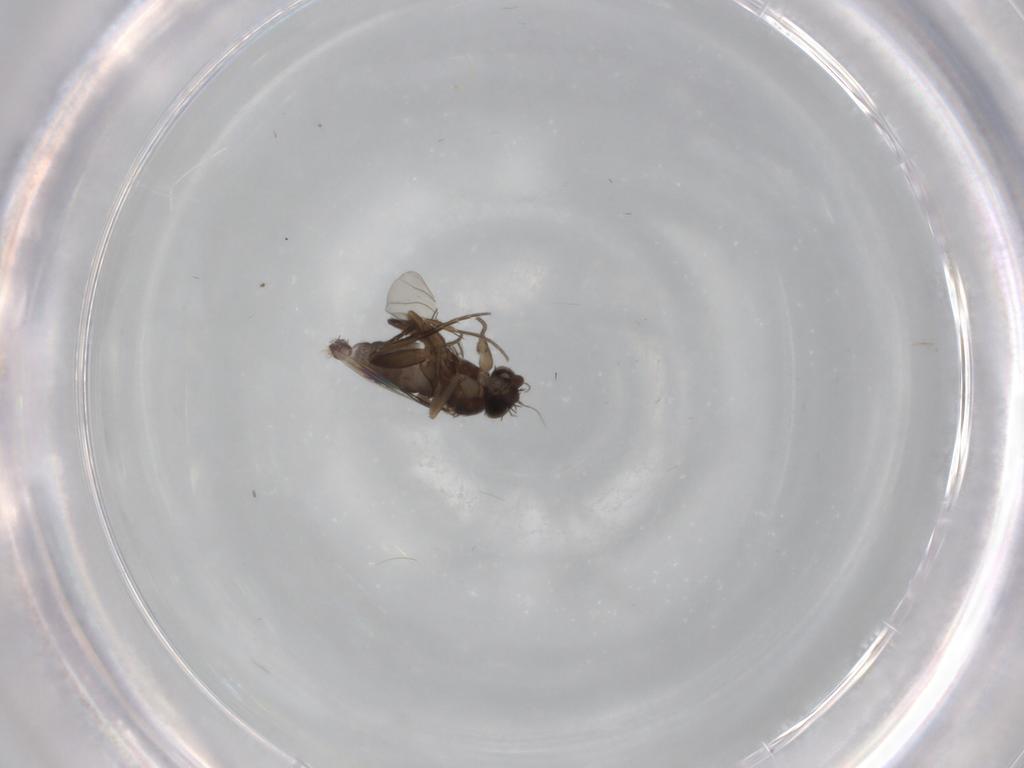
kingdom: Animalia
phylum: Arthropoda
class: Insecta
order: Diptera
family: Phoridae
